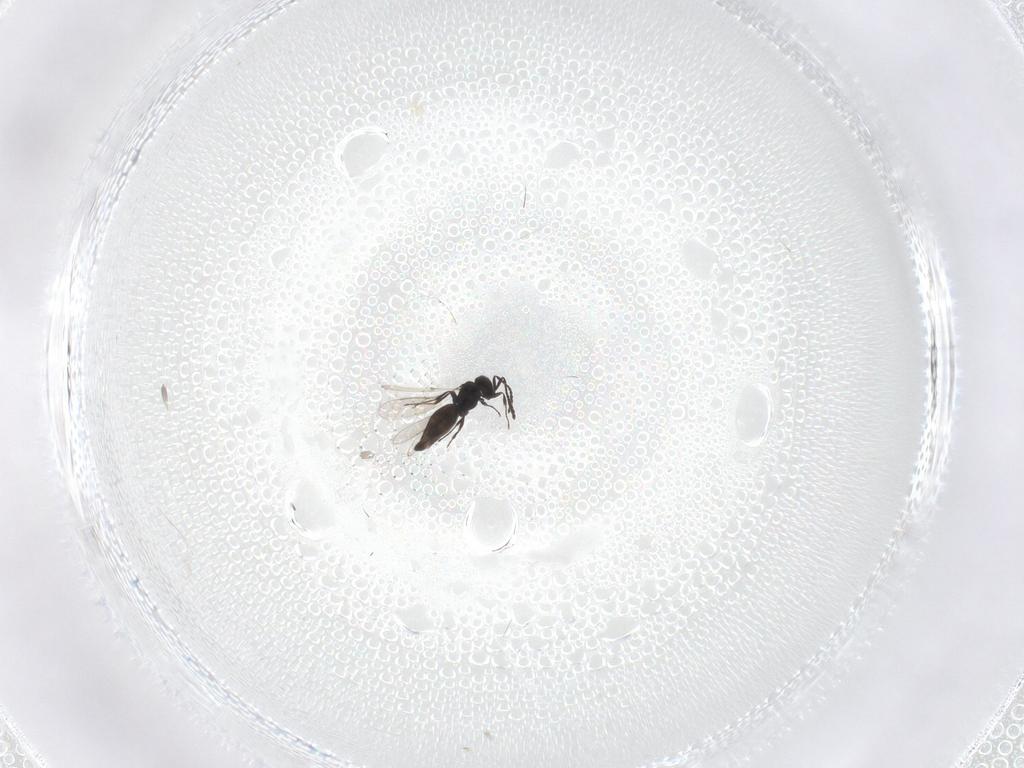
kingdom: Animalia
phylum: Arthropoda
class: Insecta
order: Hymenoptera
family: Scelionidae
